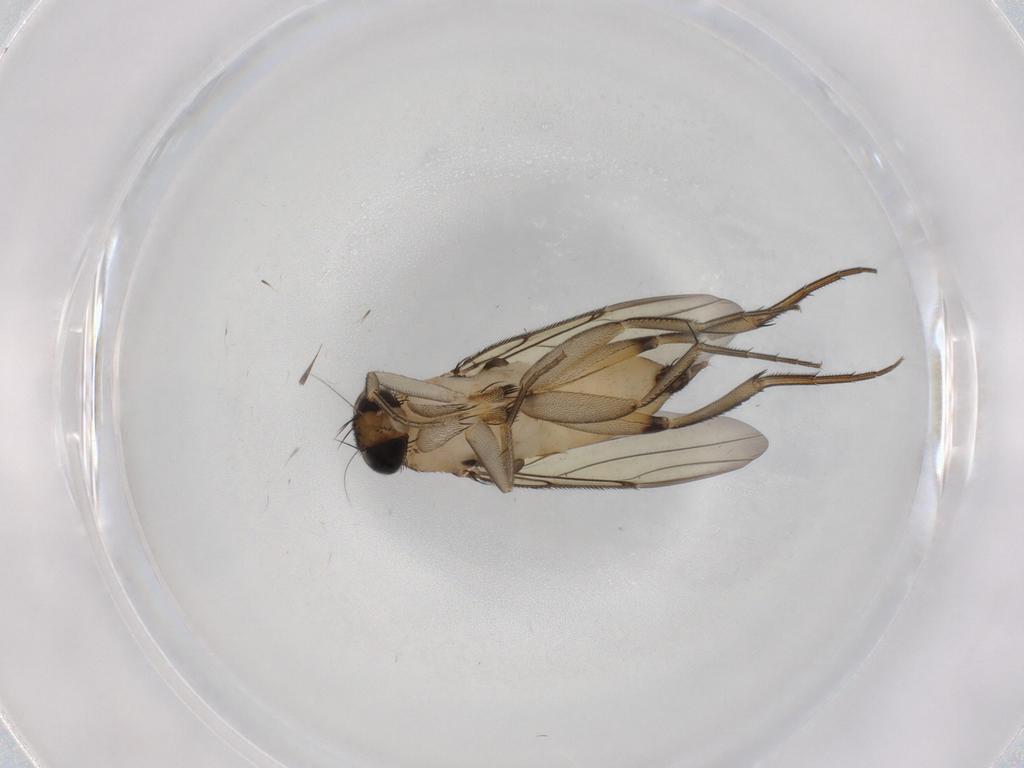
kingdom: Animalia
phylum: Arthropoda
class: Insecta
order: Diptera
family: Phoridae
